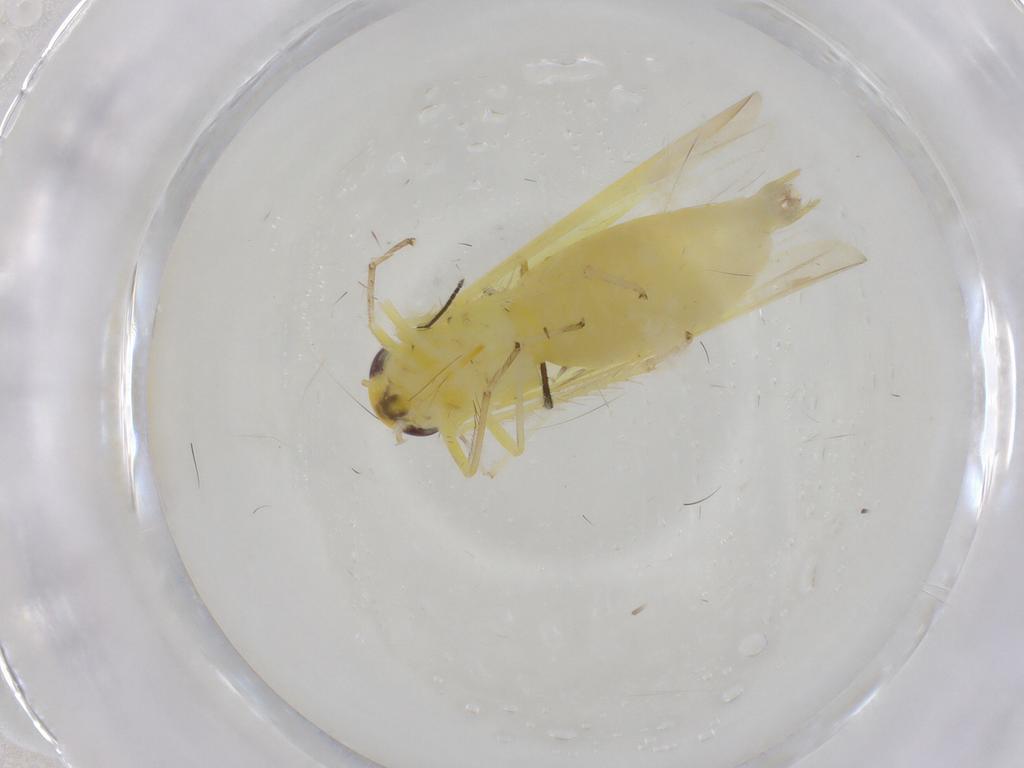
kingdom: Animalia
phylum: Arthropoda
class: Insecta
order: Hemiptera
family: Cicadellidae
